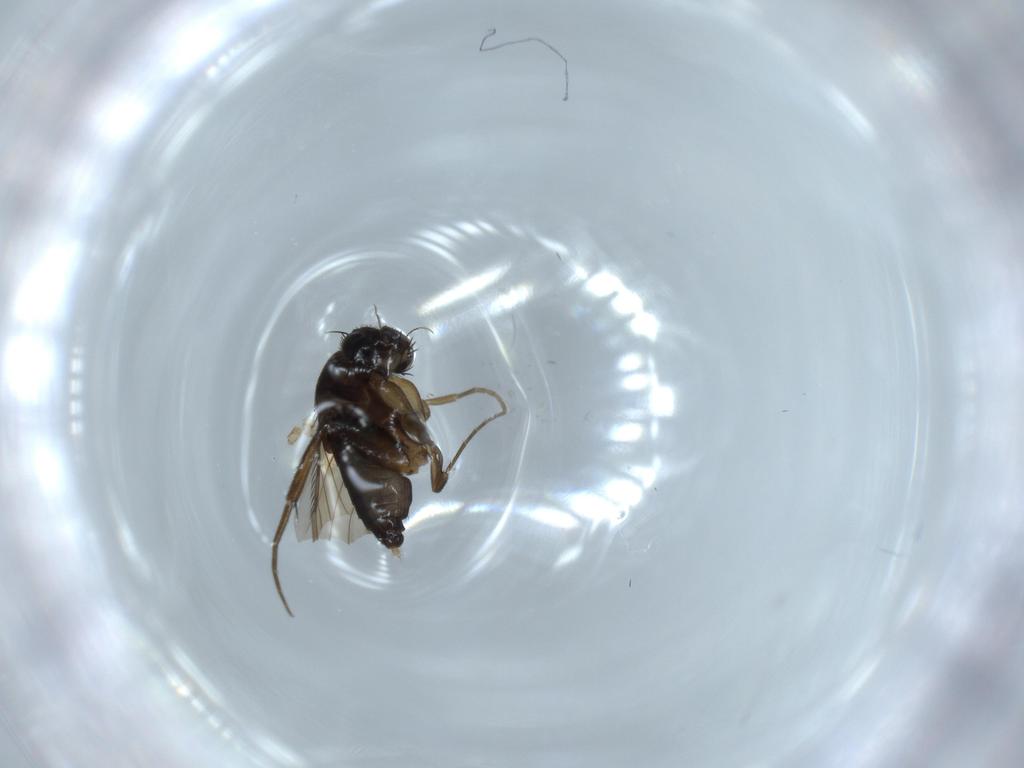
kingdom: Animalia
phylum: Arthropoda
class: Insecta
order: Diptera
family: Phoridae
